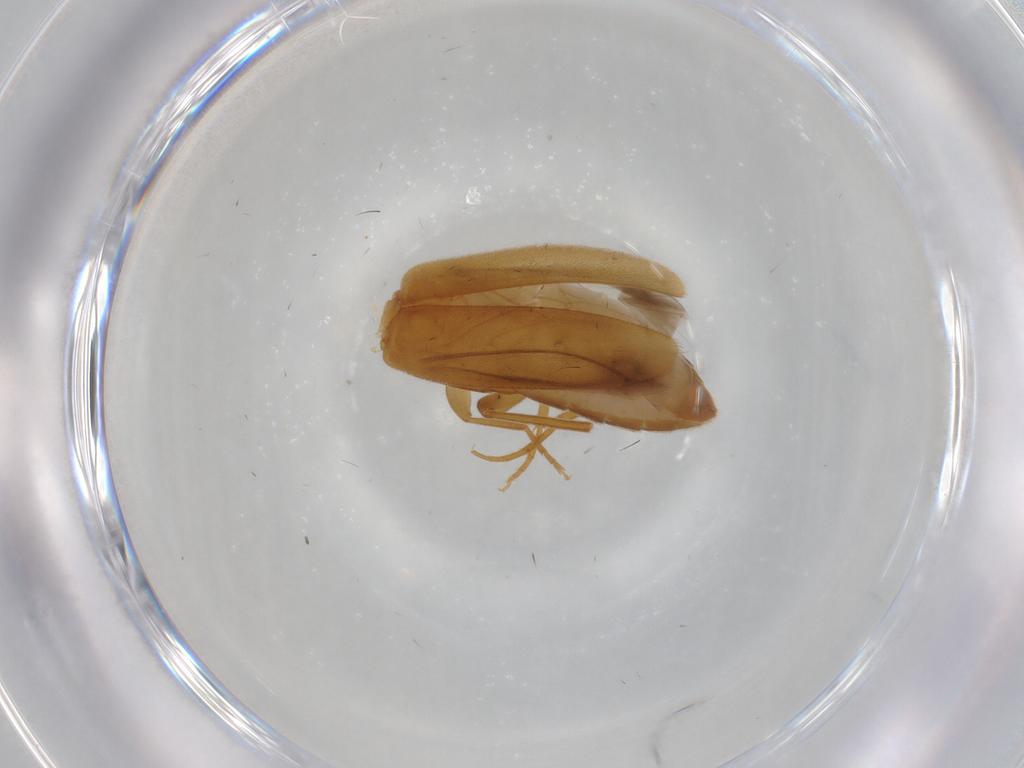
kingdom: Animalia
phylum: Arthropoda
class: Insecta
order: Coleoptera
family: Scraptiidae
